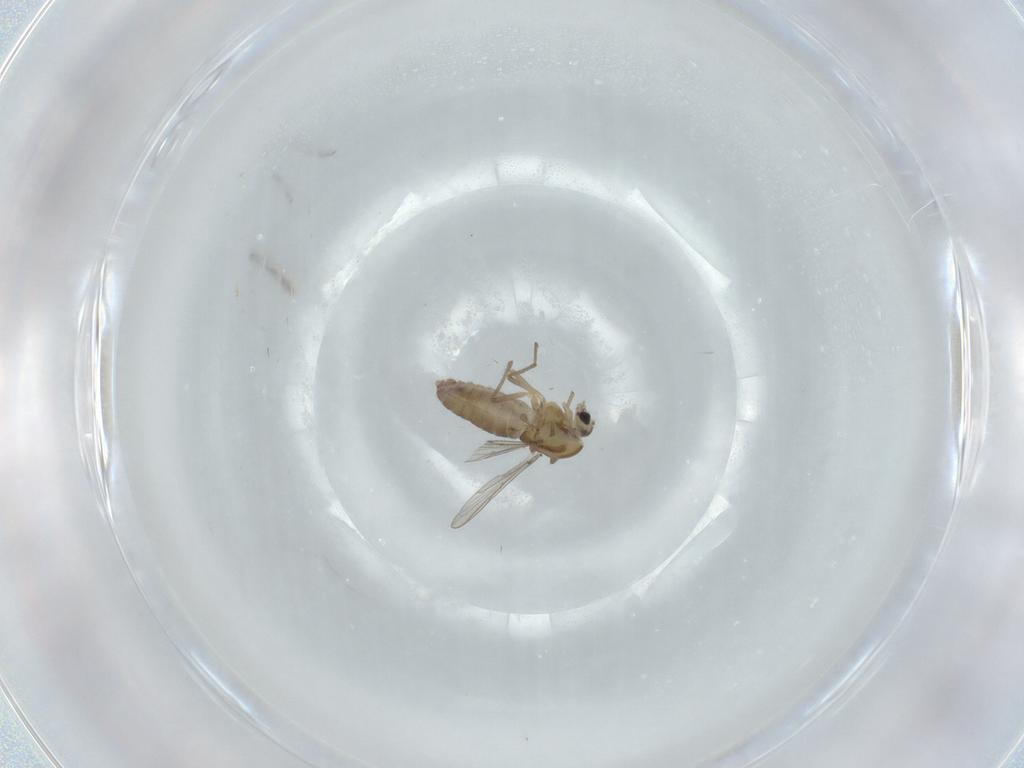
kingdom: Animalia
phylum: Arthropoda
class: Insecta
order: Diptera
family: Chironomidae
